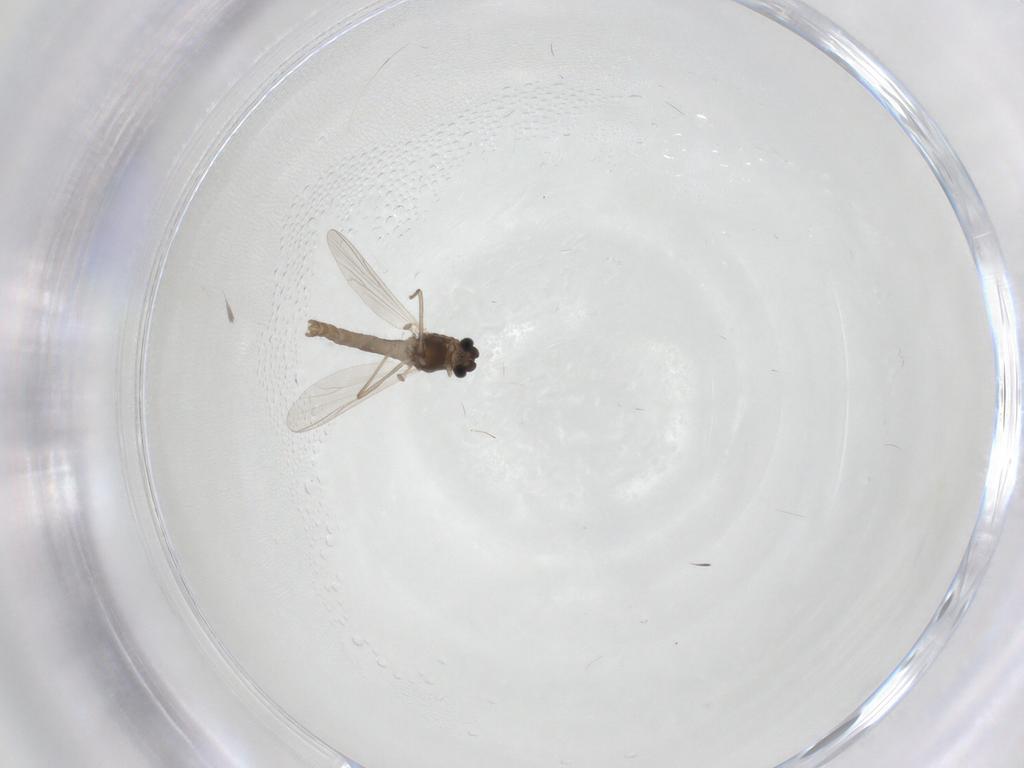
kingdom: Animalia
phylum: Arthropoda
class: Insecta
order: Diptera
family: Chironomidae
